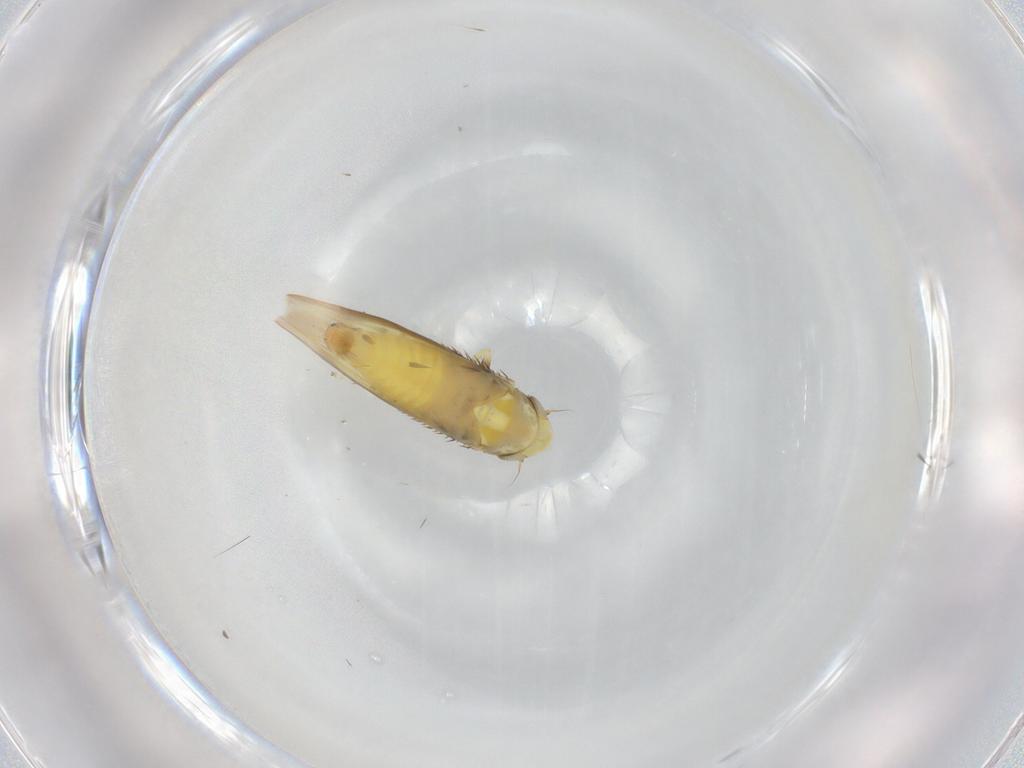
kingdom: Animalia
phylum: Arthropoda
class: Insecta
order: Hemiptera
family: Cicadellidae
